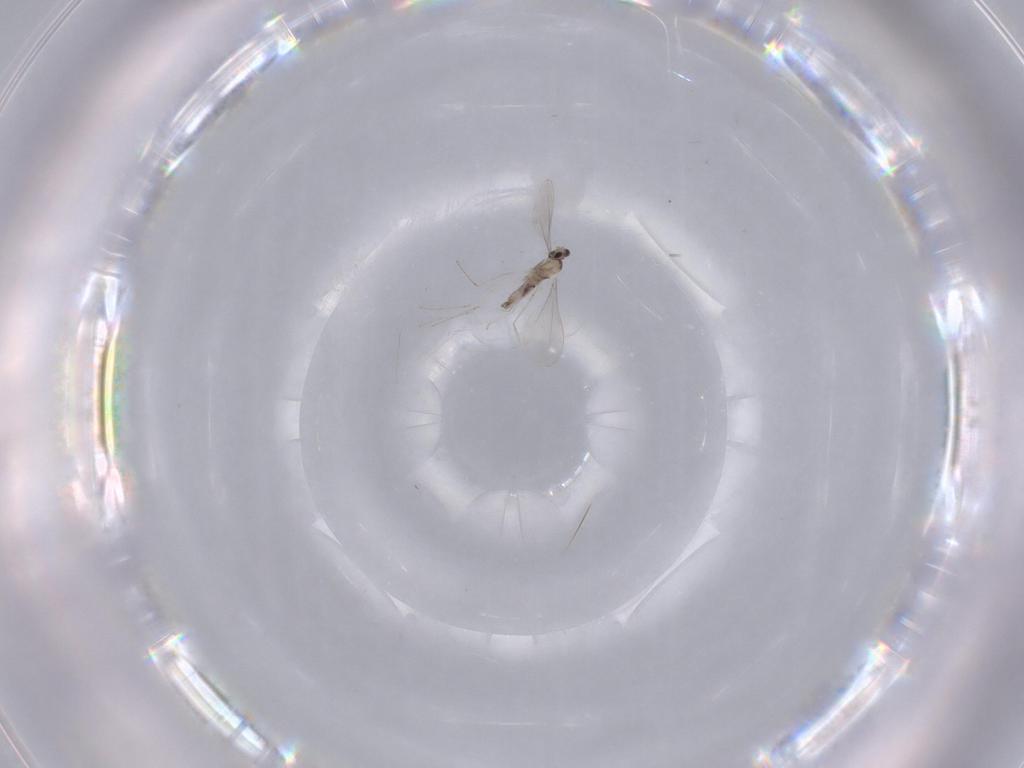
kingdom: Animalia
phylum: Arthropoda
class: Insecta
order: Diptera
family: Cecidomyiidae
